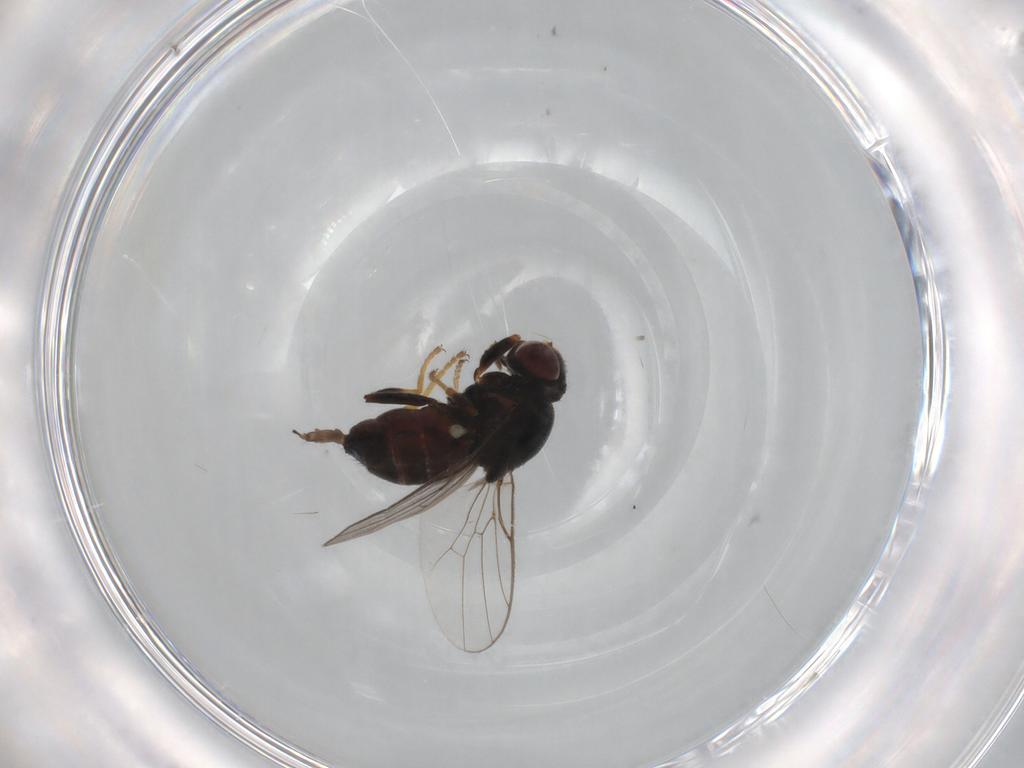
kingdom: Animalia
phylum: Arthropoda
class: Insecta
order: Diptera
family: Chloropidae
